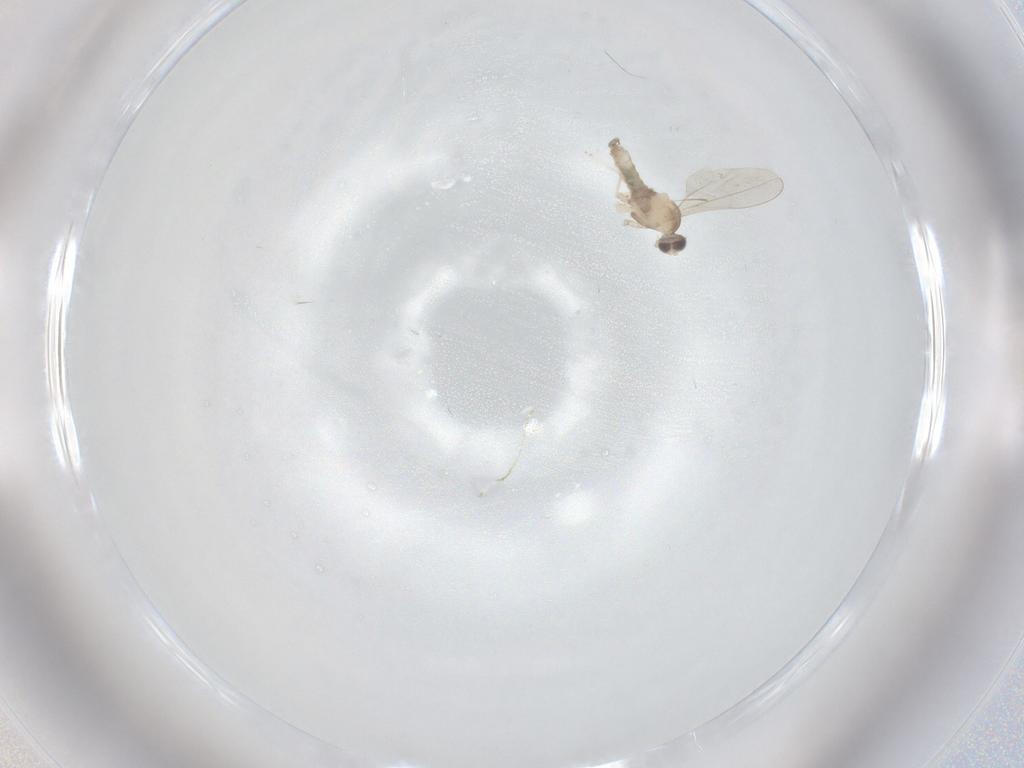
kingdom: Animalia
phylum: Arthropoda
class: Insecta
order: Diptera
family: Cecidomyiidae
